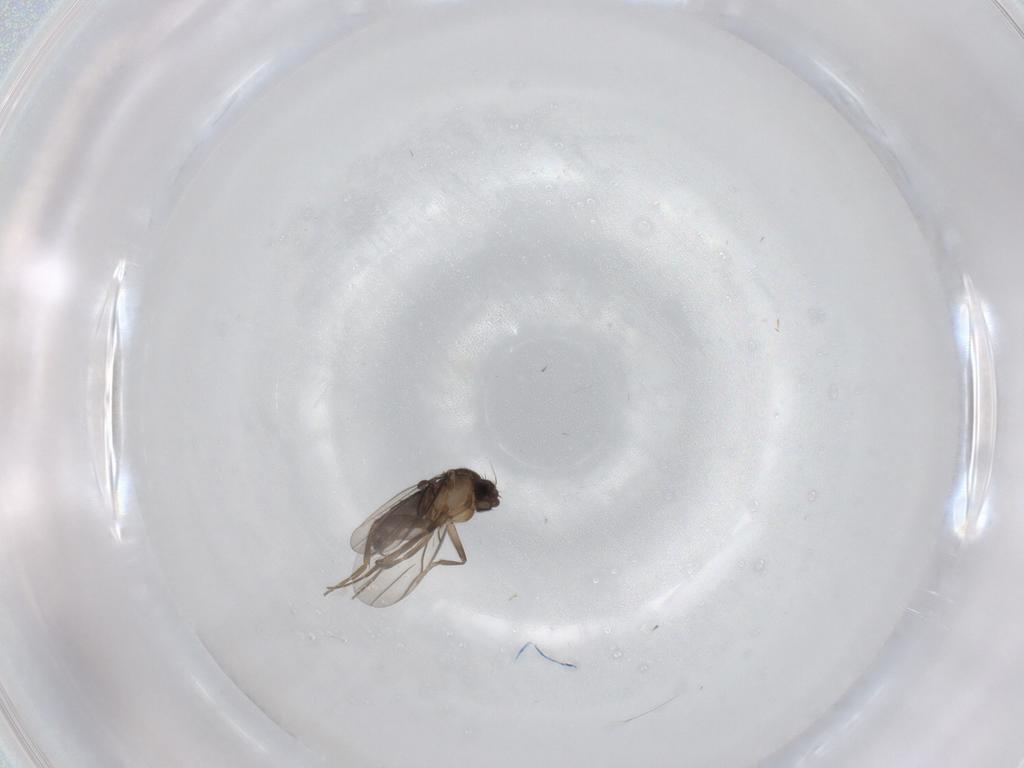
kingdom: Animalia
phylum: Arthropoda
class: Insecta
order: Diptera
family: Phoridae
